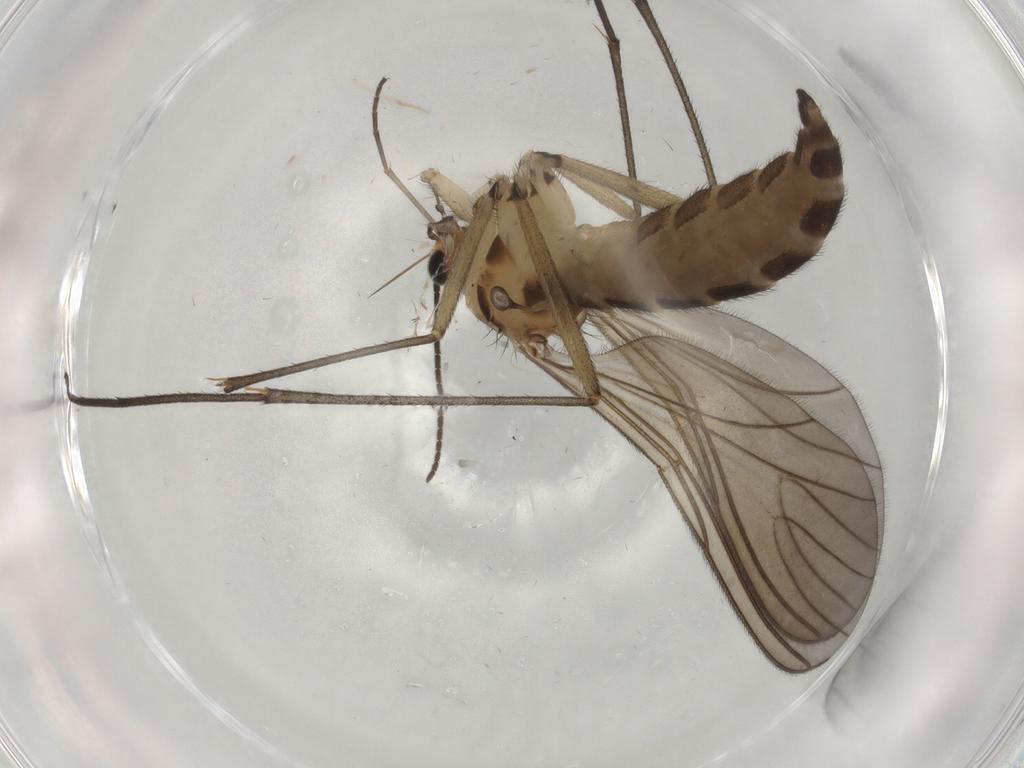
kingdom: Animalia
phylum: Arthropoda
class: Insecta
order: Diptera
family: Sciaridae
